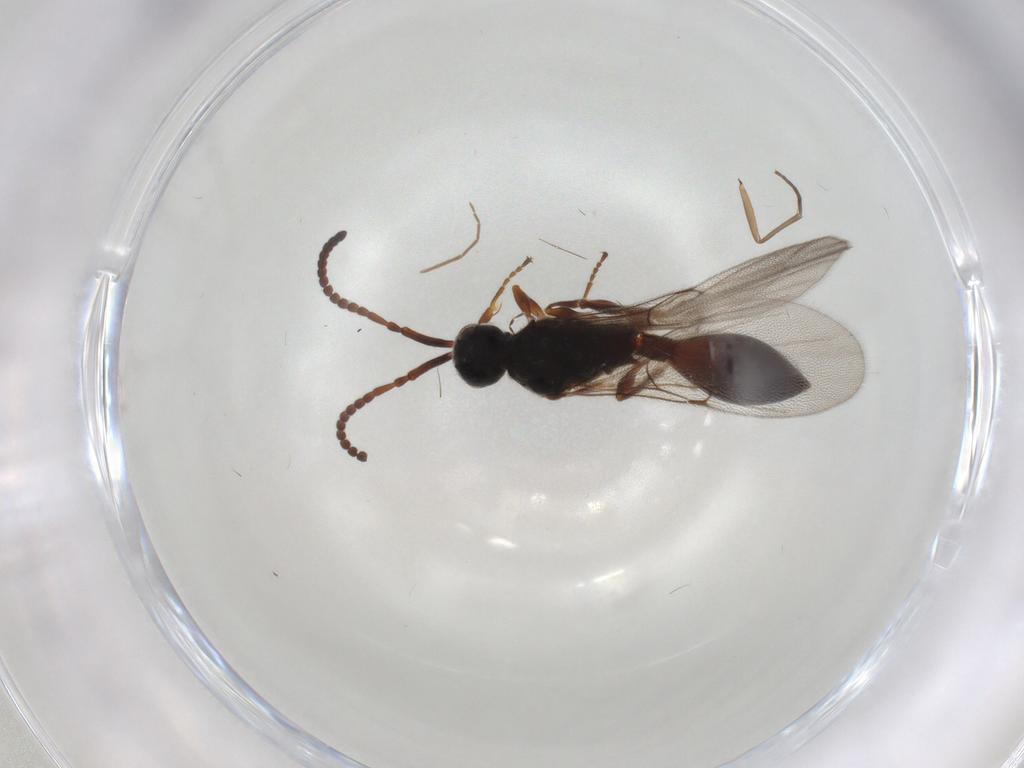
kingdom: Animalia
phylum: Arthropoda
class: Insecta
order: Hymenoptera
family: Diapriidae
